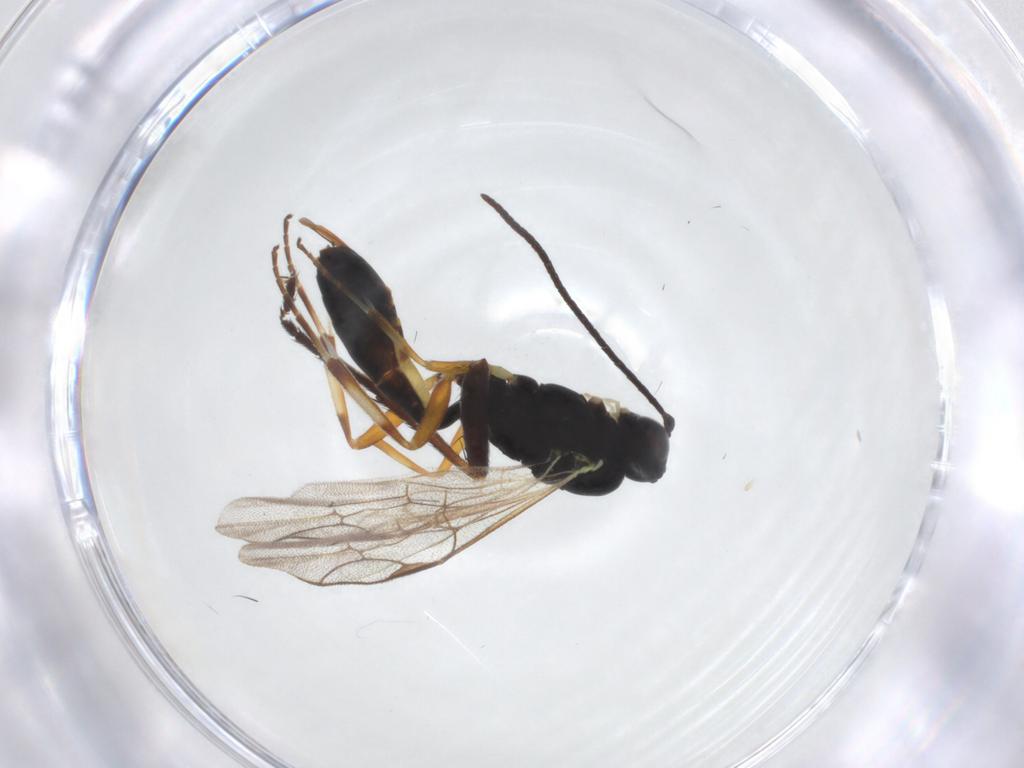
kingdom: Animalia
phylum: Arthropoda
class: Insecta
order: Hymenoptera
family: Ichneumonidae
